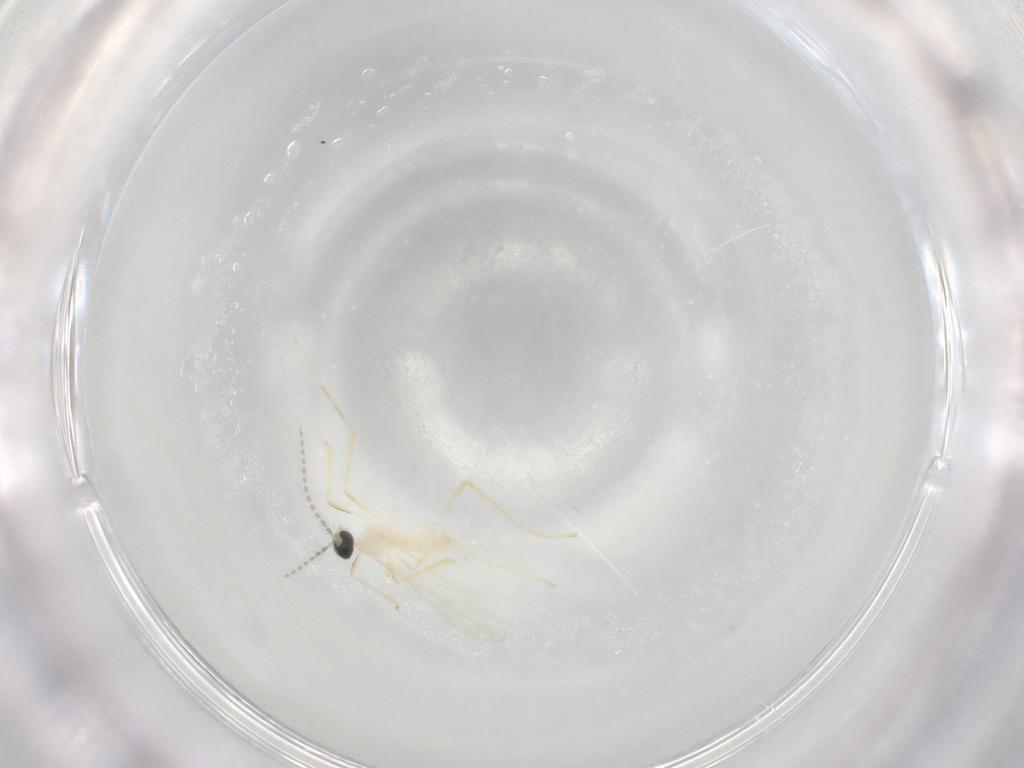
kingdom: Animalia
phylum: Arthropoda
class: Insecta
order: Diptera
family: Cecidomyiidae
